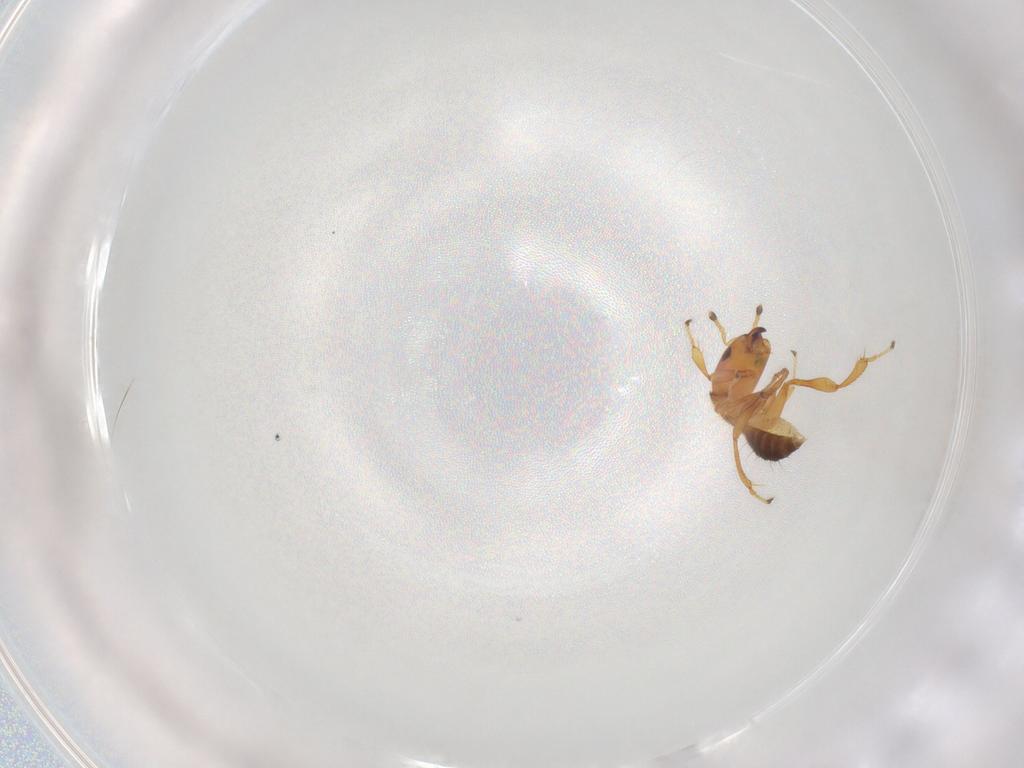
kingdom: Animalia
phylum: Arthropoda
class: Insecta
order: Hymenoptera
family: Pteromalidae
